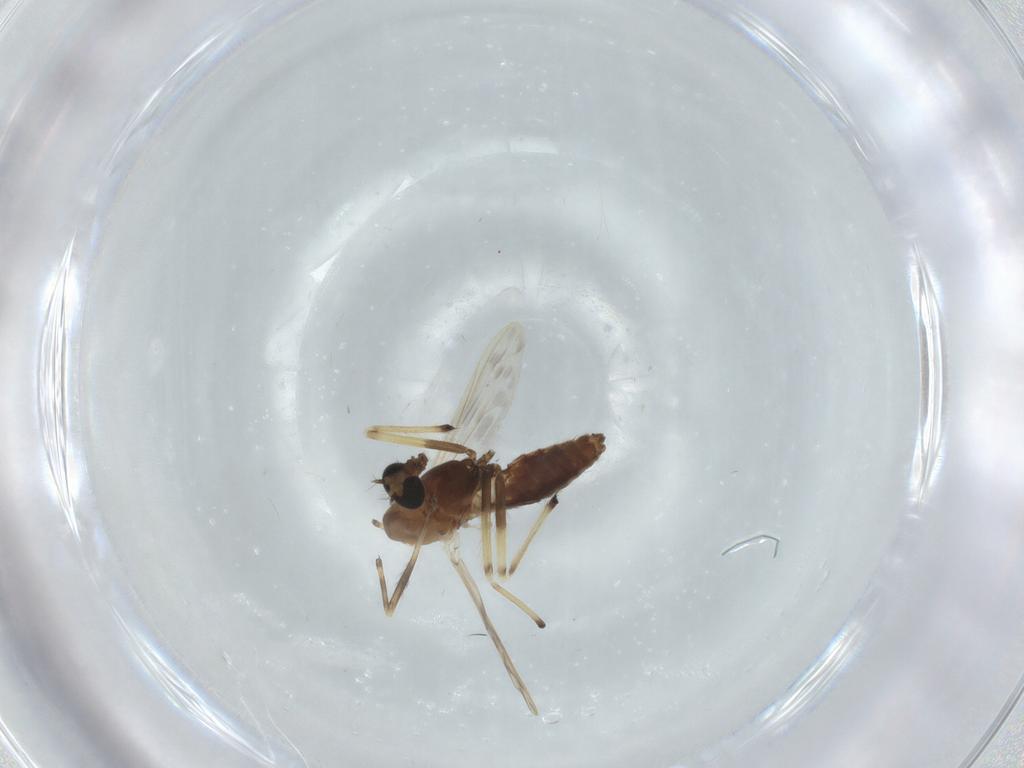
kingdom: Animalia
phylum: Arthropoda
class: Insecta
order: Diptera
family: Chironomidae
